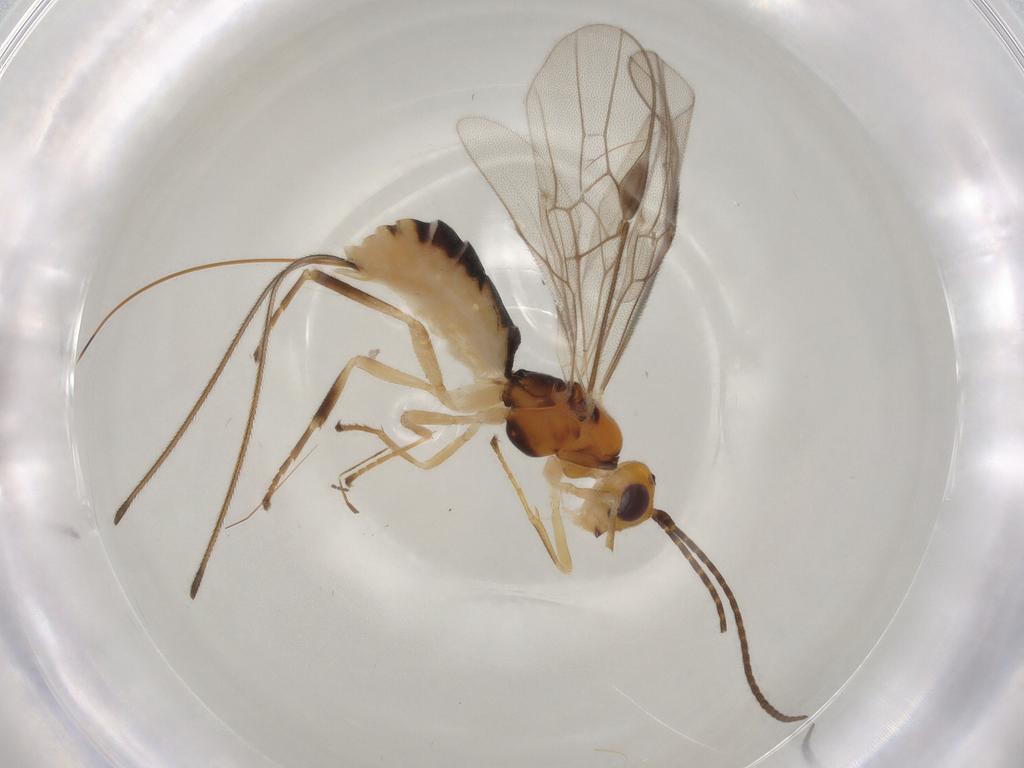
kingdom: Animalia
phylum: Arthropoda
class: Insecta
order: Hymenoptera
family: Braconidae
